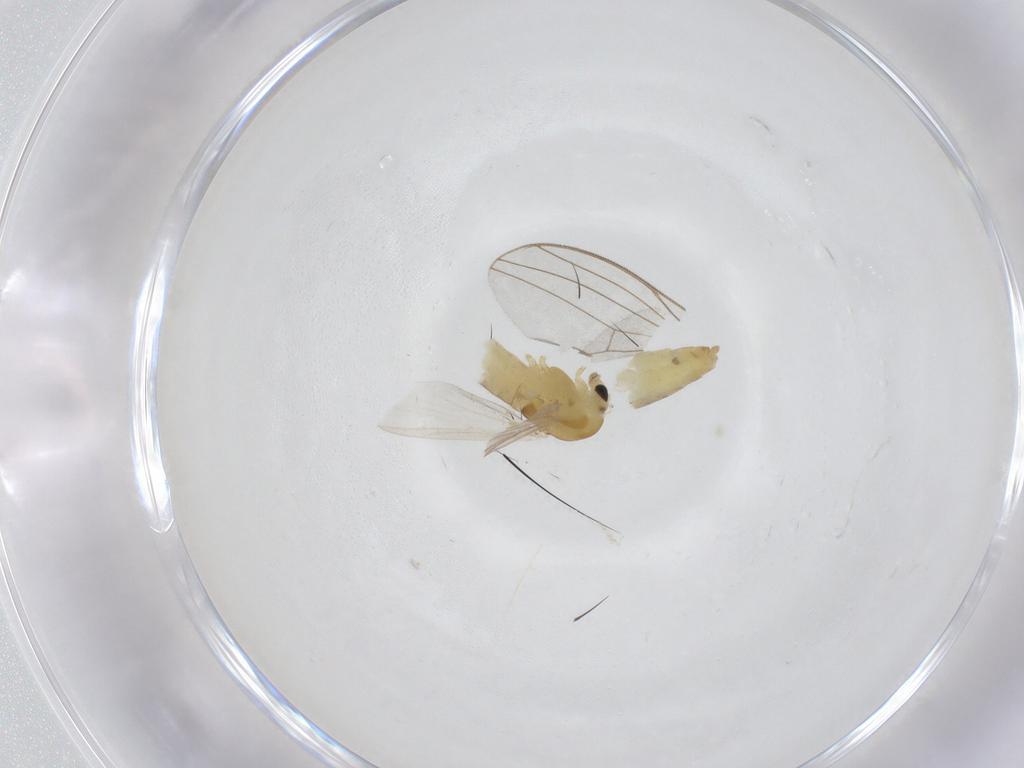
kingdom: Animalia
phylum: Arthropoda
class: Insecta
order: Diptera
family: Chironomidae
